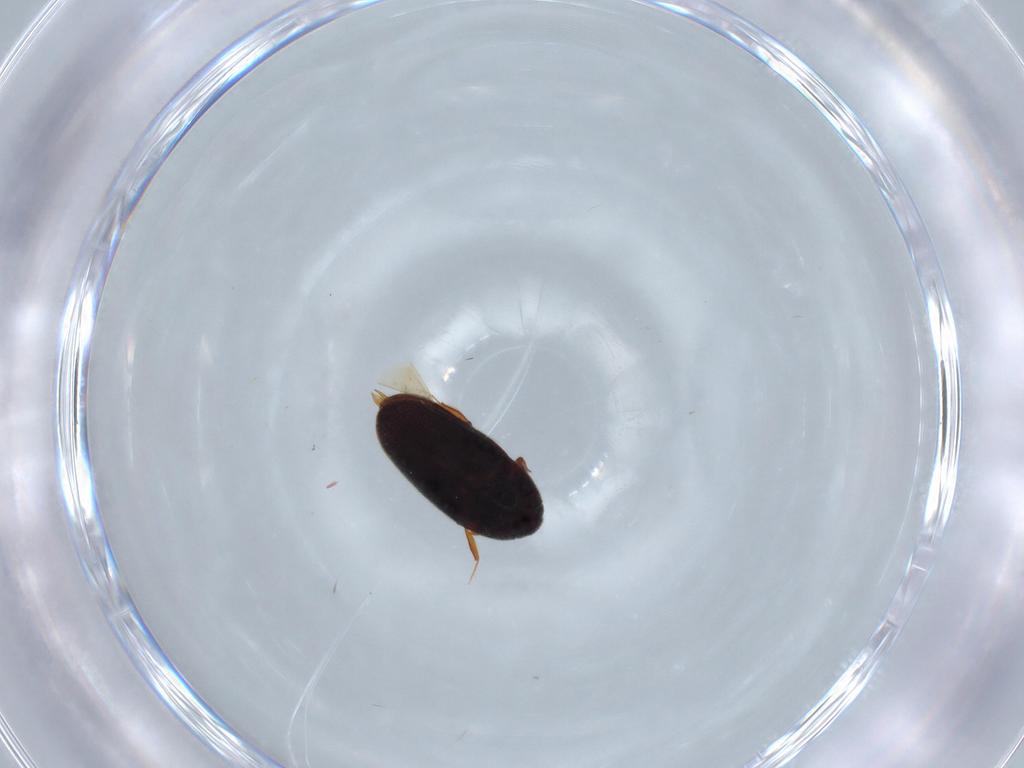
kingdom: Animalia
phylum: Arthropoda
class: Insecta
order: Coleoptera
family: Throscidae
